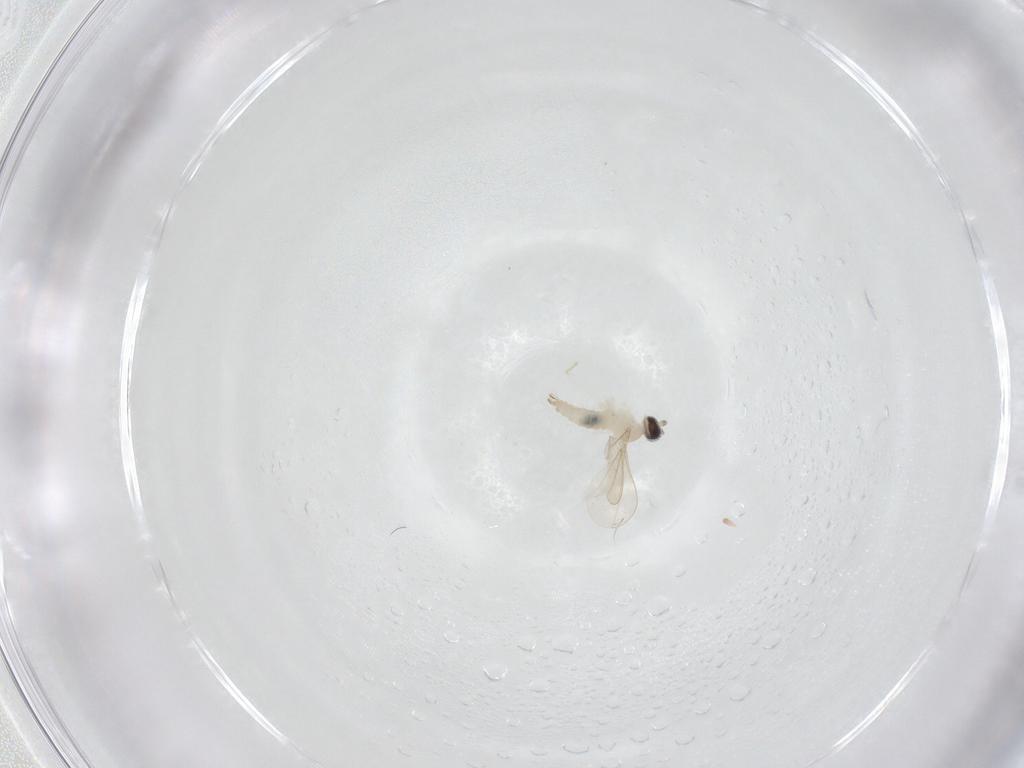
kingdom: Animalia
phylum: Arthropoda
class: Insecta
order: Diptera
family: Cecidomyiidae
